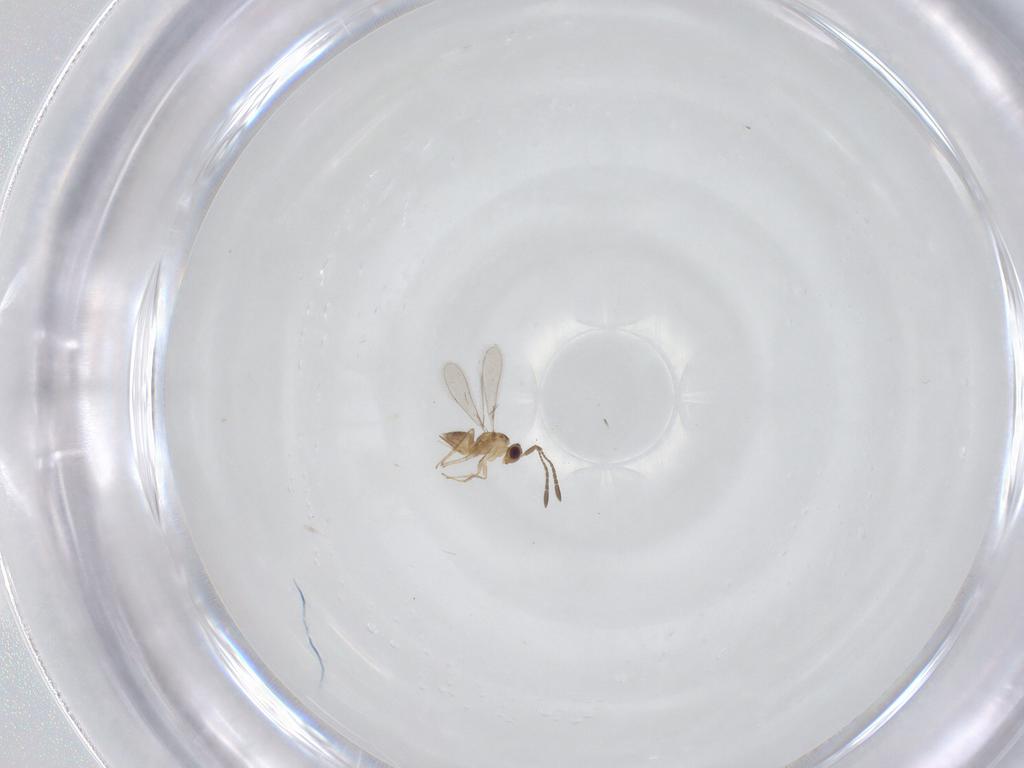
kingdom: Animalia
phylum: Arthropoda
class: Insecta
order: Hymenoptera
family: Mymaridae
